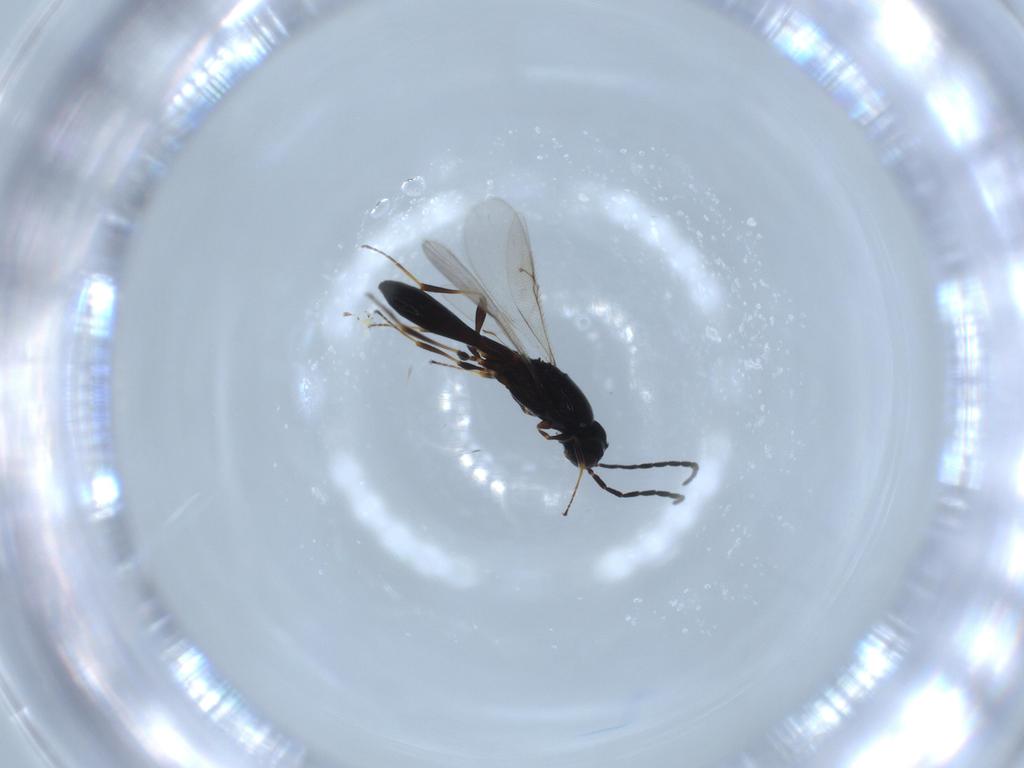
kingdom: Animalia
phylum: Arthropoda
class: Insecta
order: Hymenoptera
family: Scelionidae
